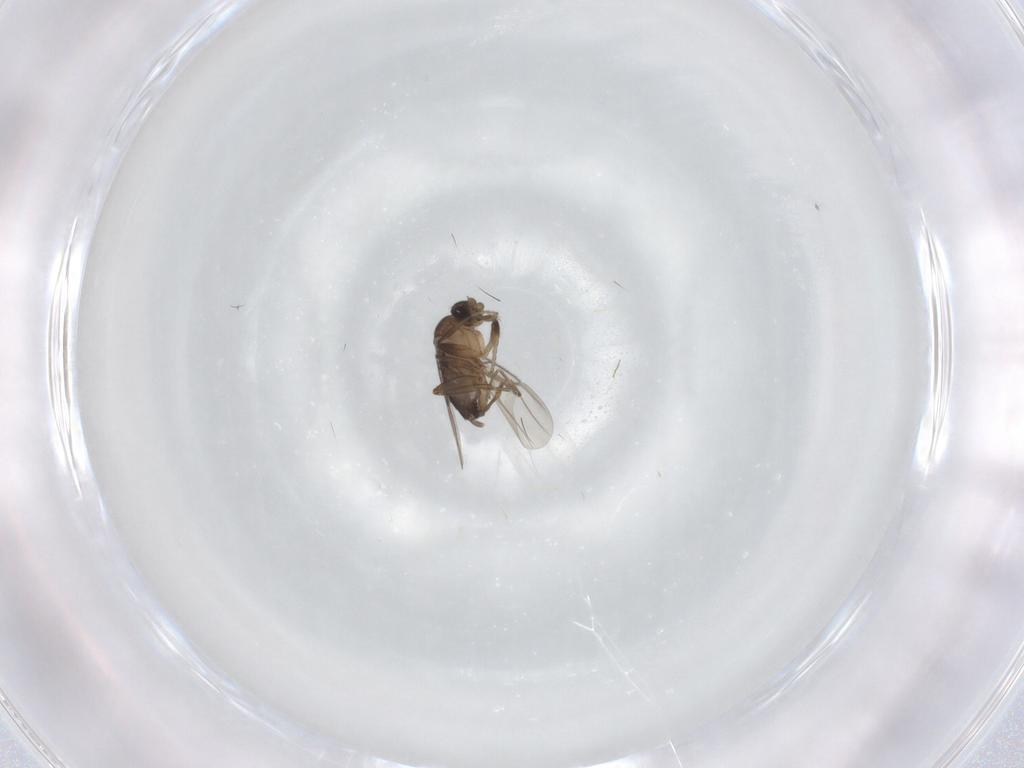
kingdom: Animalia
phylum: Arthropoda
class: Insecta
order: Diptera
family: Phoridae
